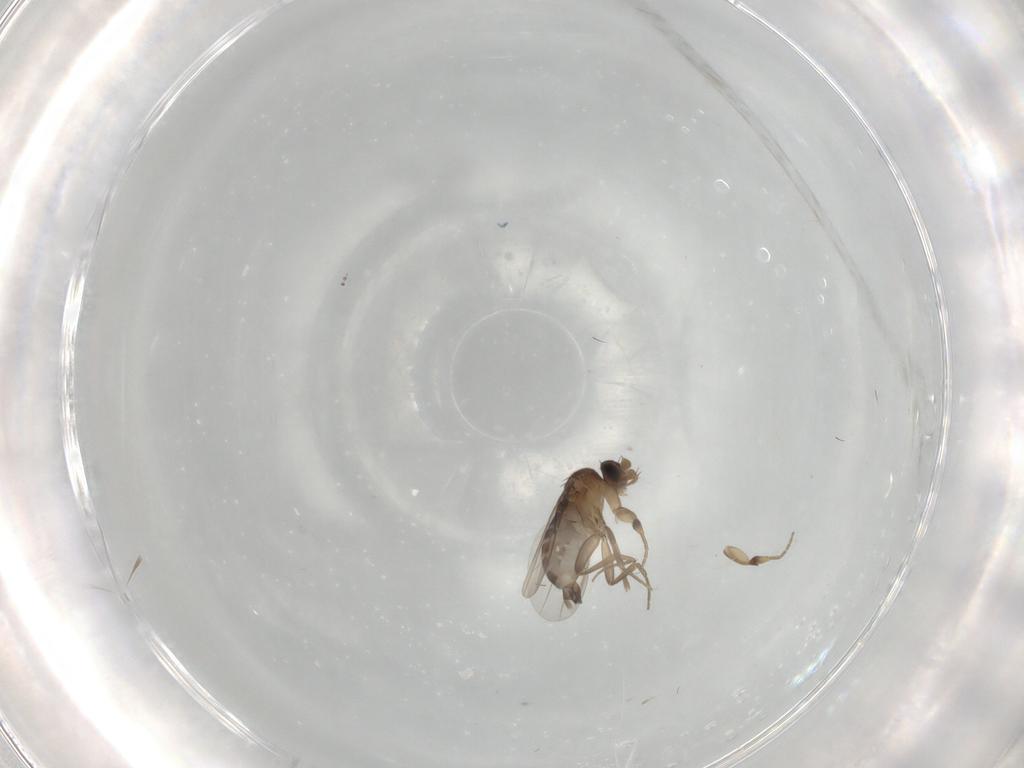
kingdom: Animalia
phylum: Arthropoda
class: Insecta
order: Diptera
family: Phoridae
